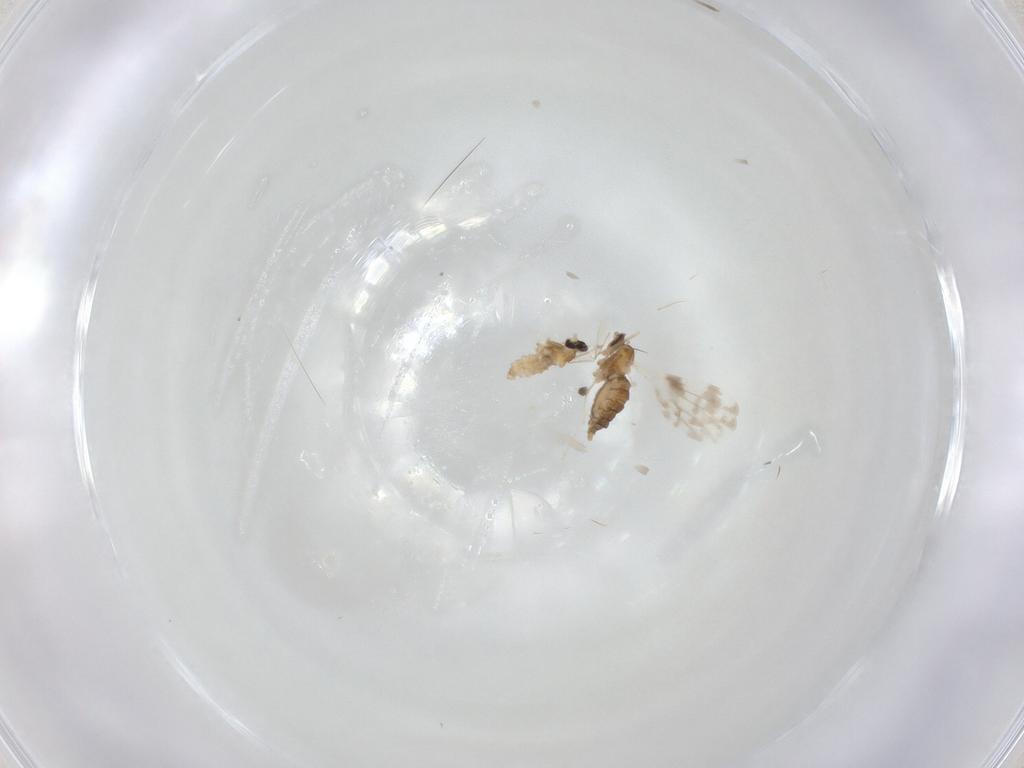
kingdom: Animalia
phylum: Arthropoda
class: Insecta
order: Diptera
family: Cecidomyiidae
